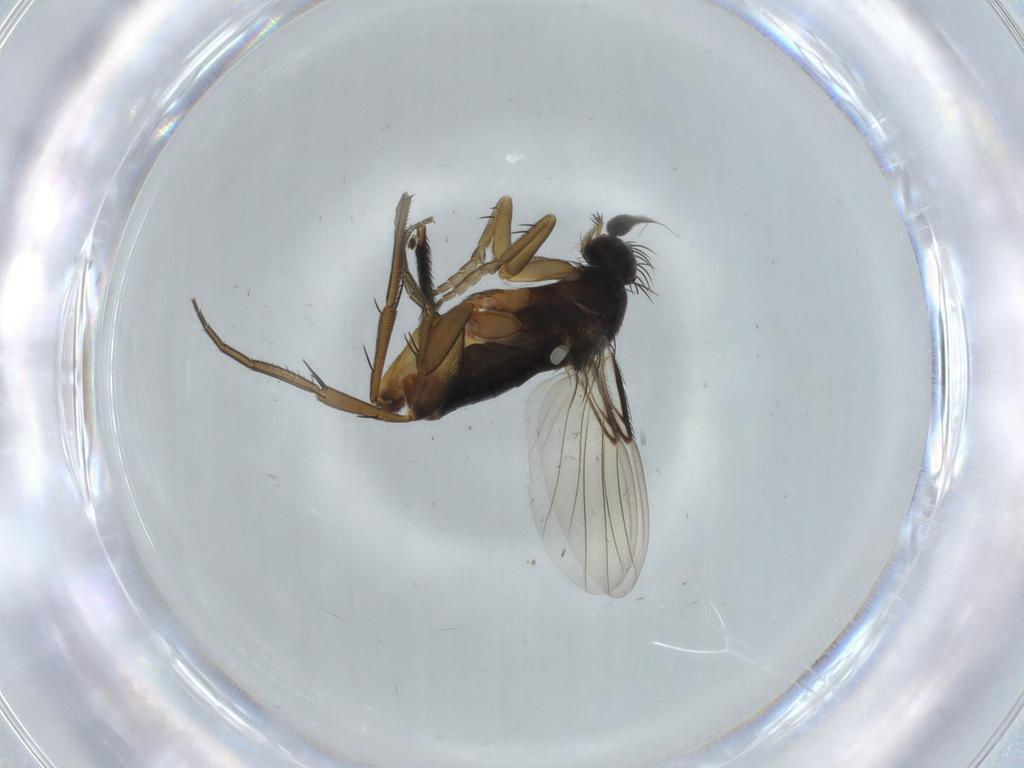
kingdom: Animalia
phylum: Arthropoda
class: Insecta
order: Diptera
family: Phoridae
